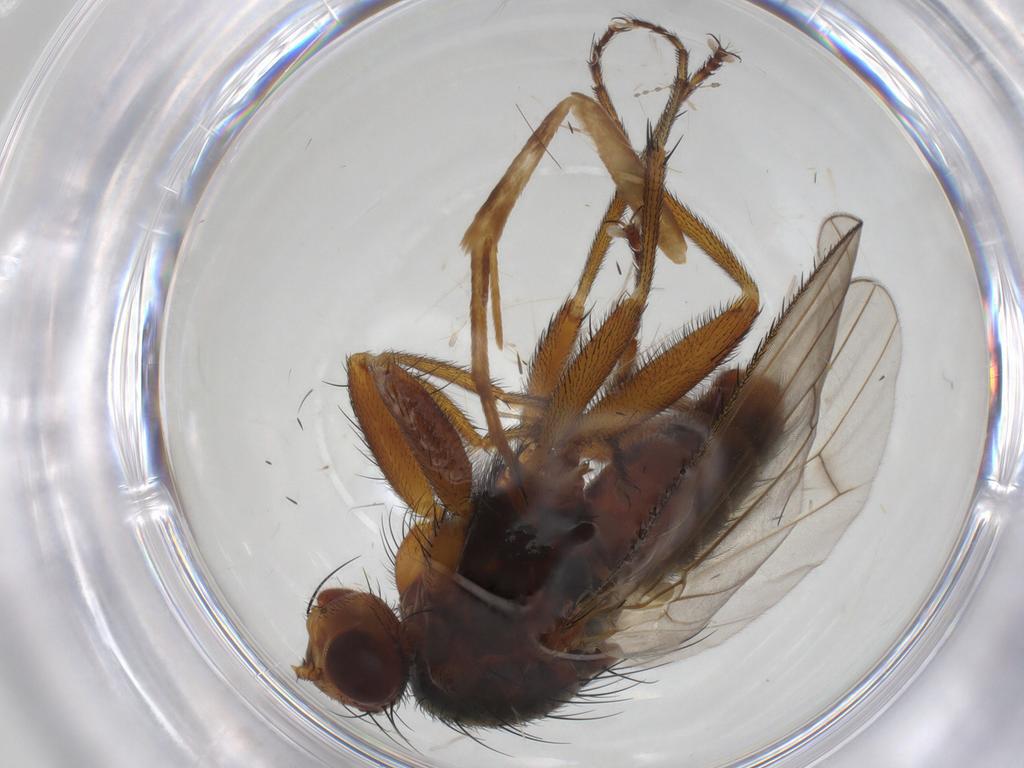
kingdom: Animalia
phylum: Arthropoda
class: Insecta
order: Diptera
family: Heleomyzidae
